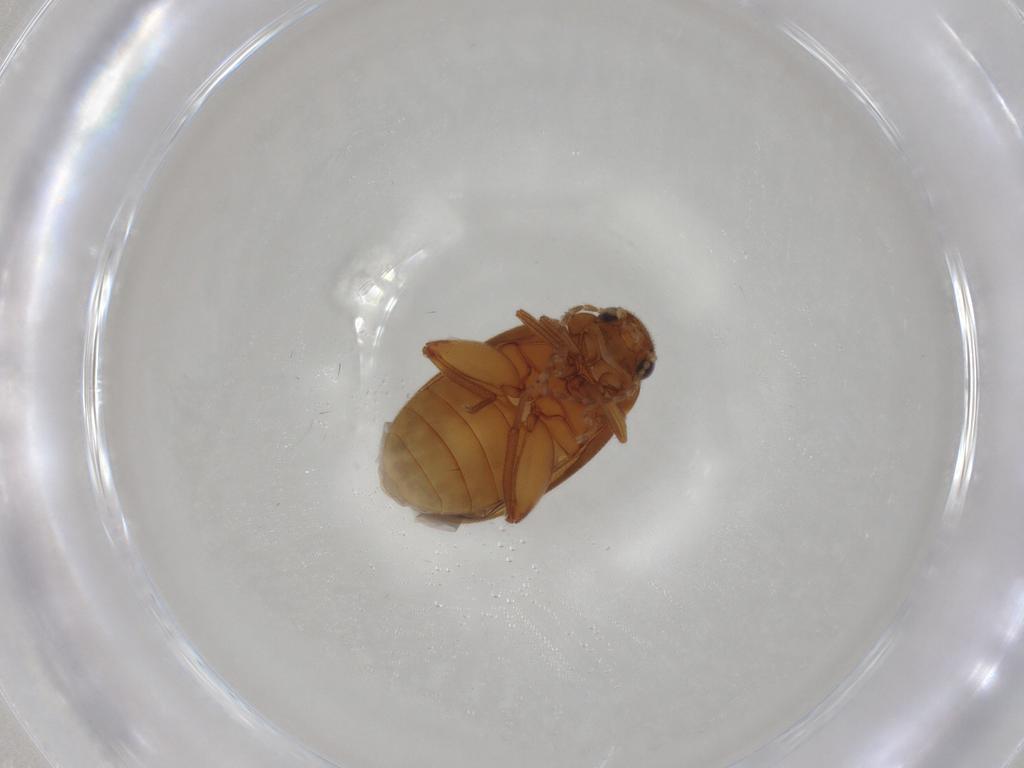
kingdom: Animalia
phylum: Arthropoda
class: Insecta
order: Coleoptera
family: Scirtidae
